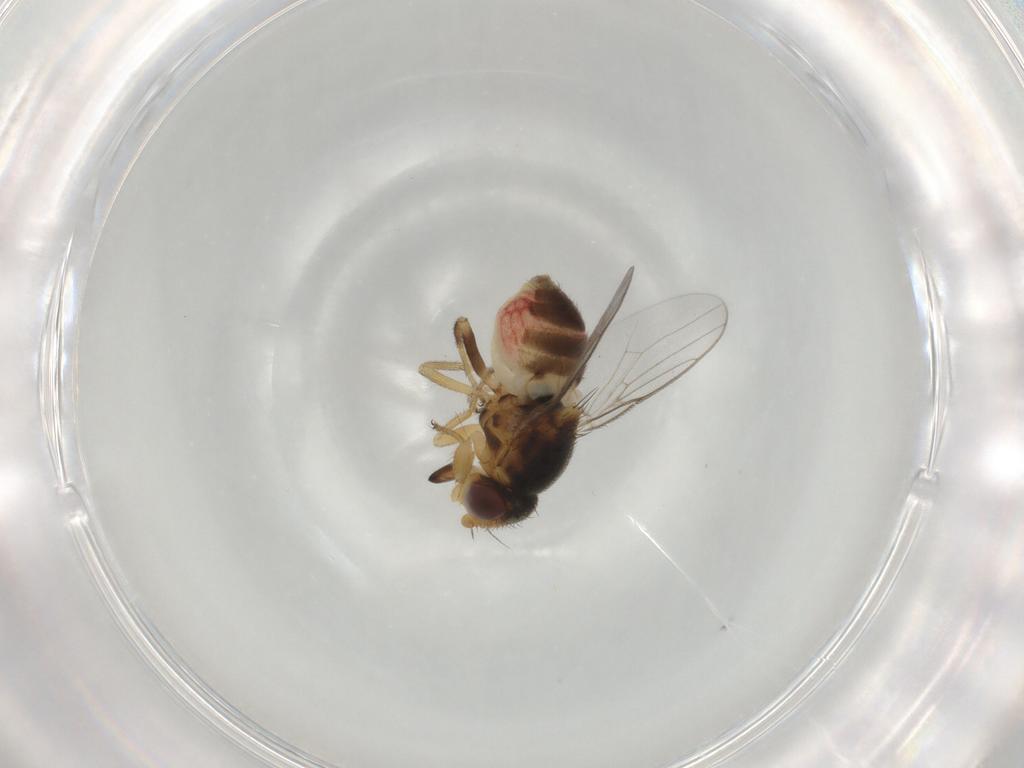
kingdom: Animalia
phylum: Arthropoda
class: Insecta
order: Diptera
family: Chloropidae
